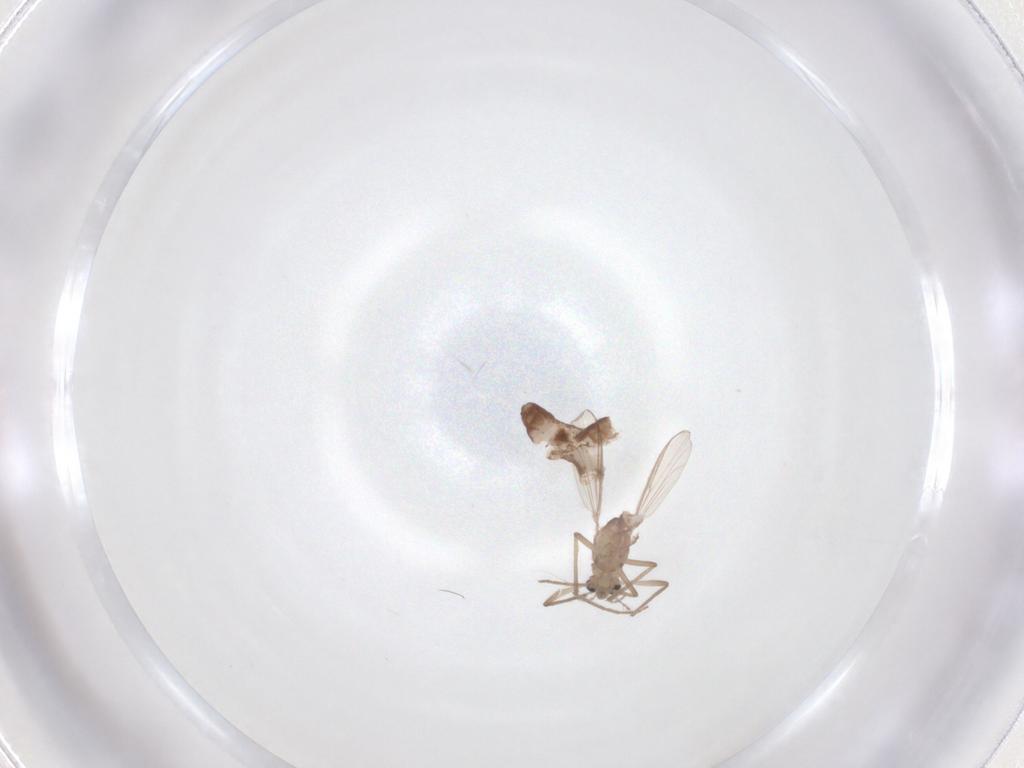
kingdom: Animalia
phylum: Arthropoda
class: Insecta
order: Diptera
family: Chironomidae
